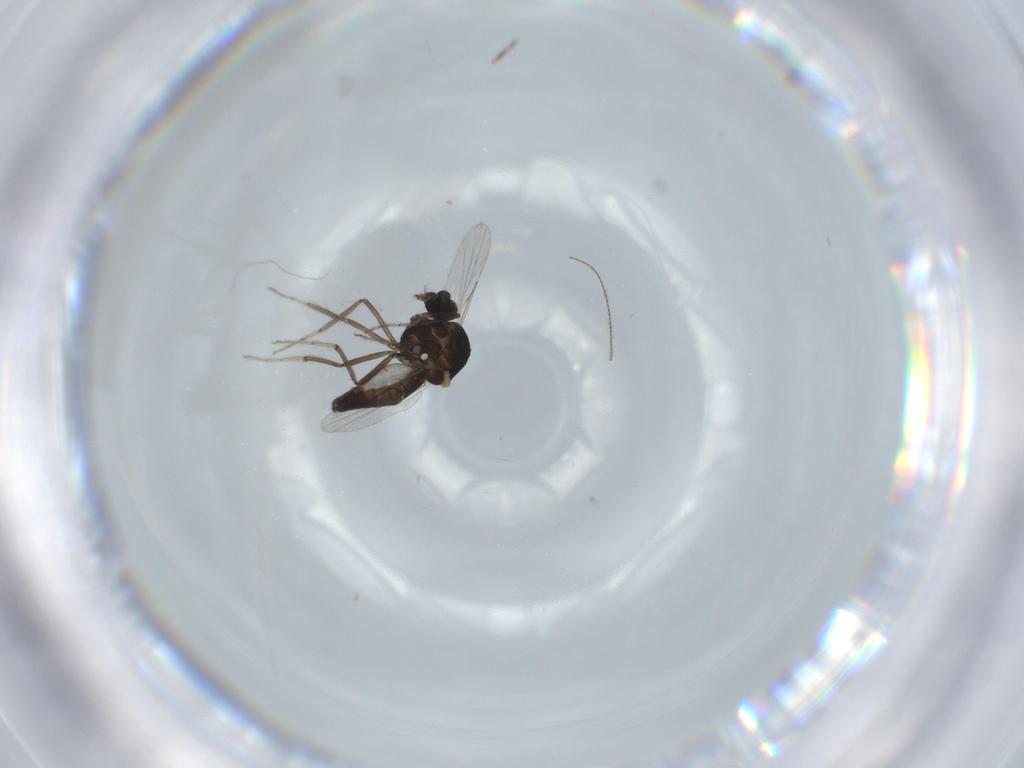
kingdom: Animalia
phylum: Arthropoda
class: Insecta
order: Diptera
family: Ceratopogonidae
